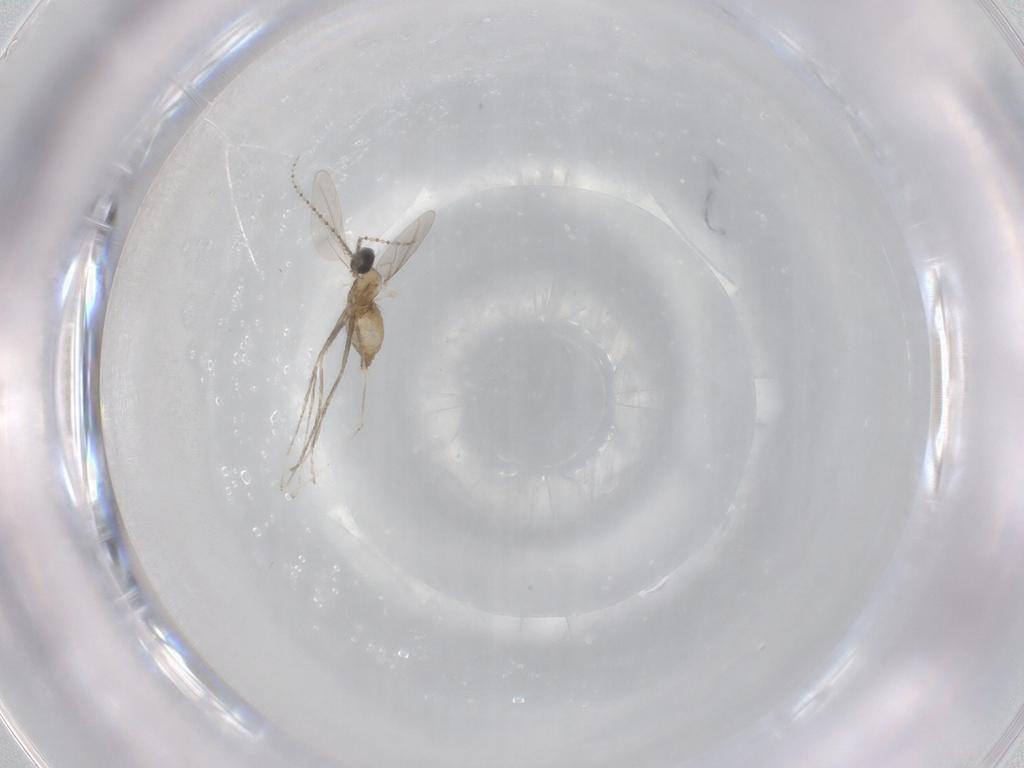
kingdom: Animalia
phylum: Arthropoda
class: Insecta
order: Diptera
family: Cecidomyiidae
